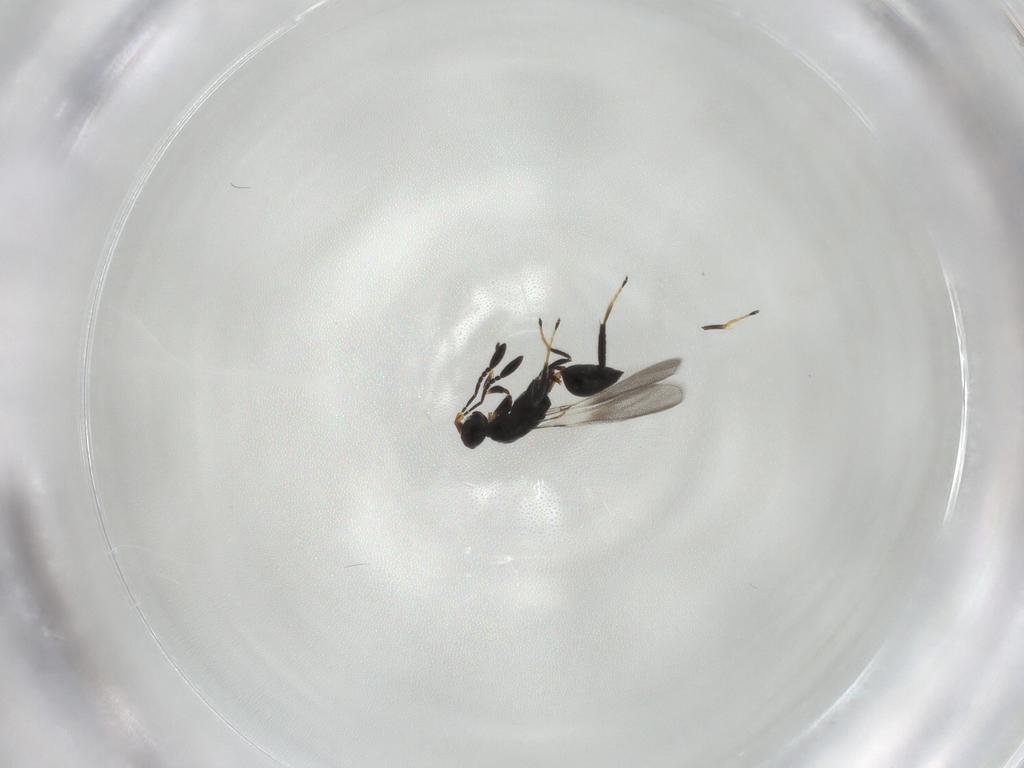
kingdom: Animalia
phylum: Arthropoda
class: Insecta
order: Hymenoptera
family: Mymaridae
